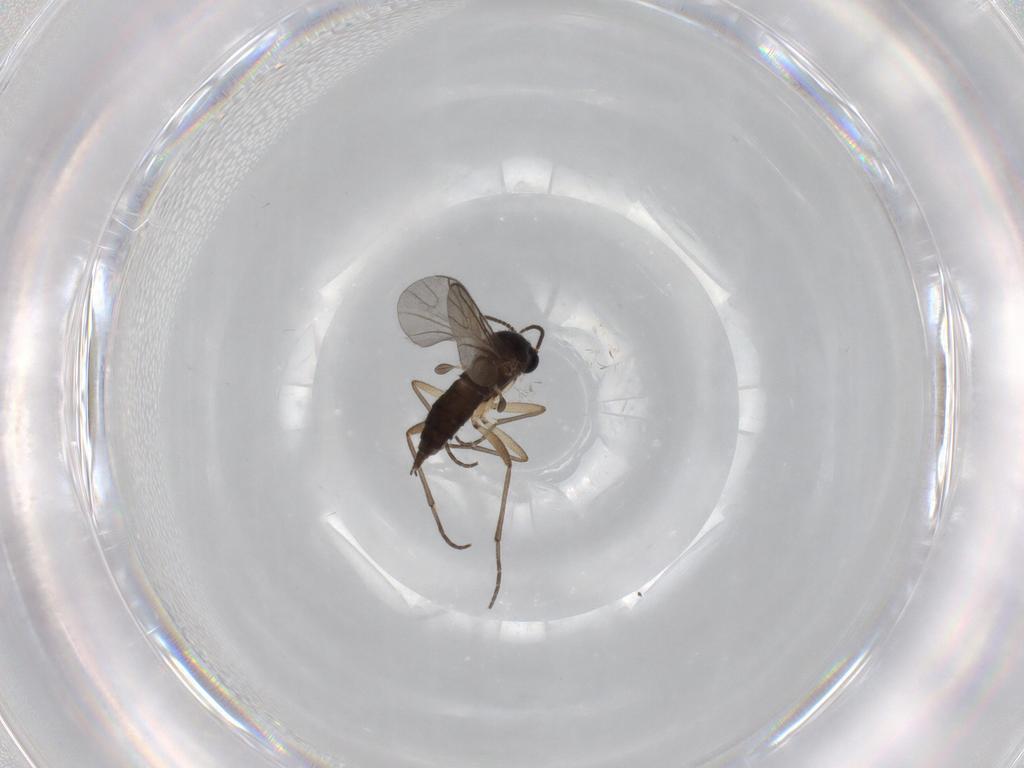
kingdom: Animalia
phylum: Arthropoda
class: Insecta
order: Diptera
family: Sciaridae
